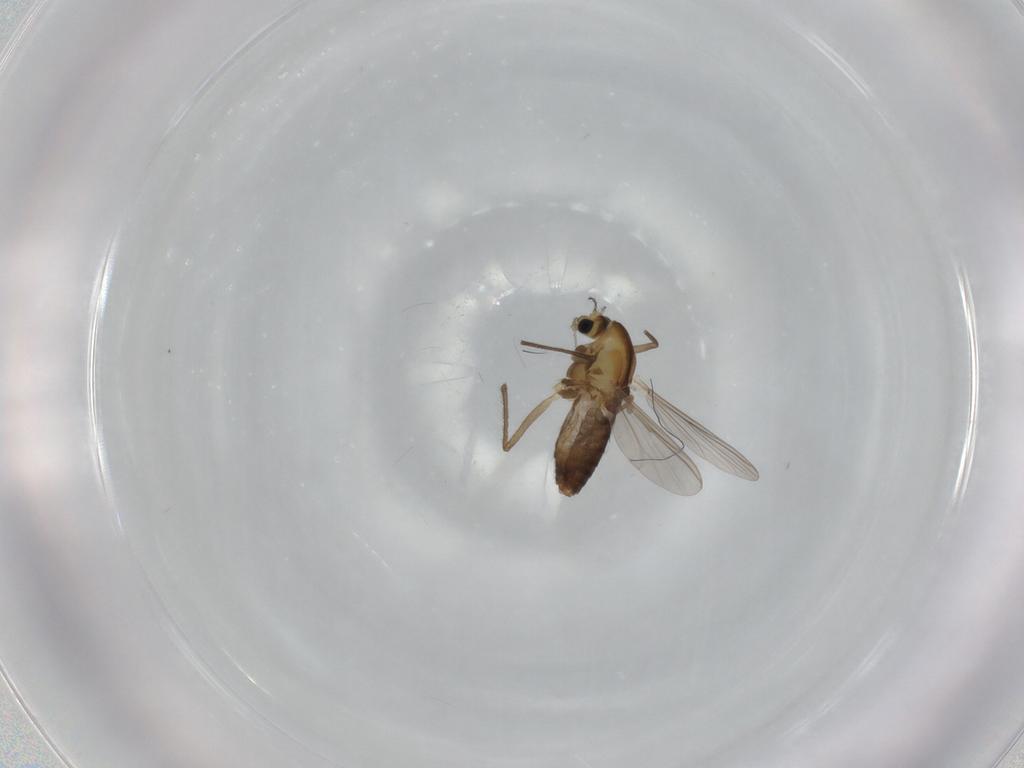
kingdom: Animalia
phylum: Arthropoda
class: Insecta
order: Diptera
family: Chironomidae
